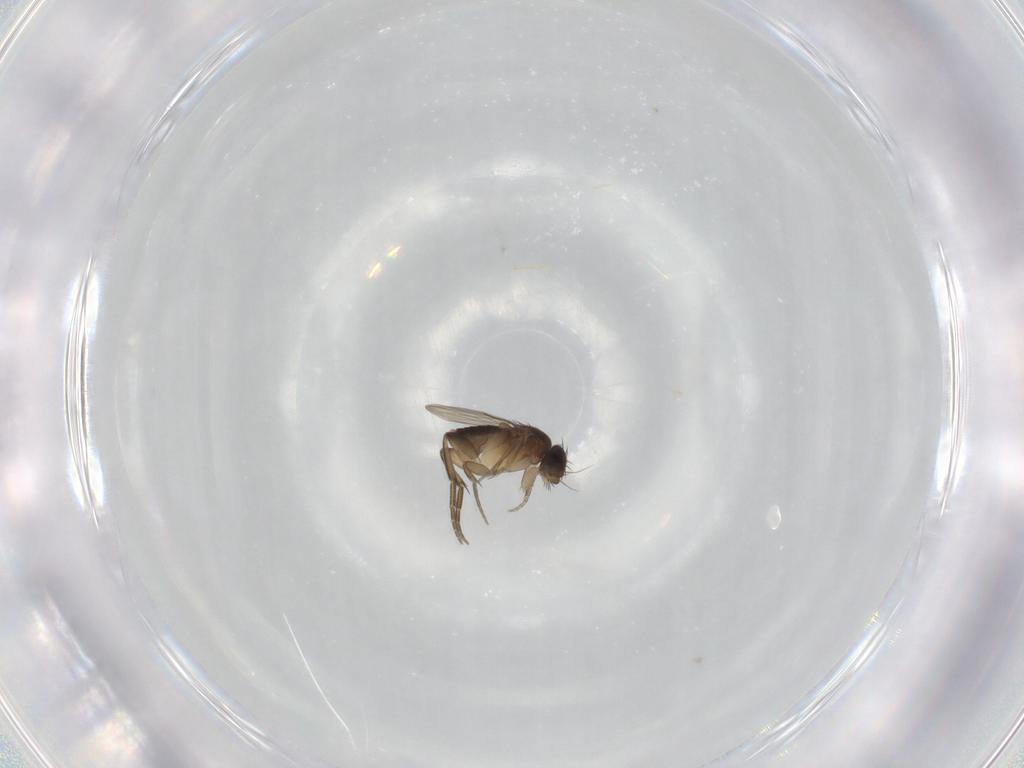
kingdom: Animalia
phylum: Arthropoda
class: Insecta
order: Diptera
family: Phoridae
